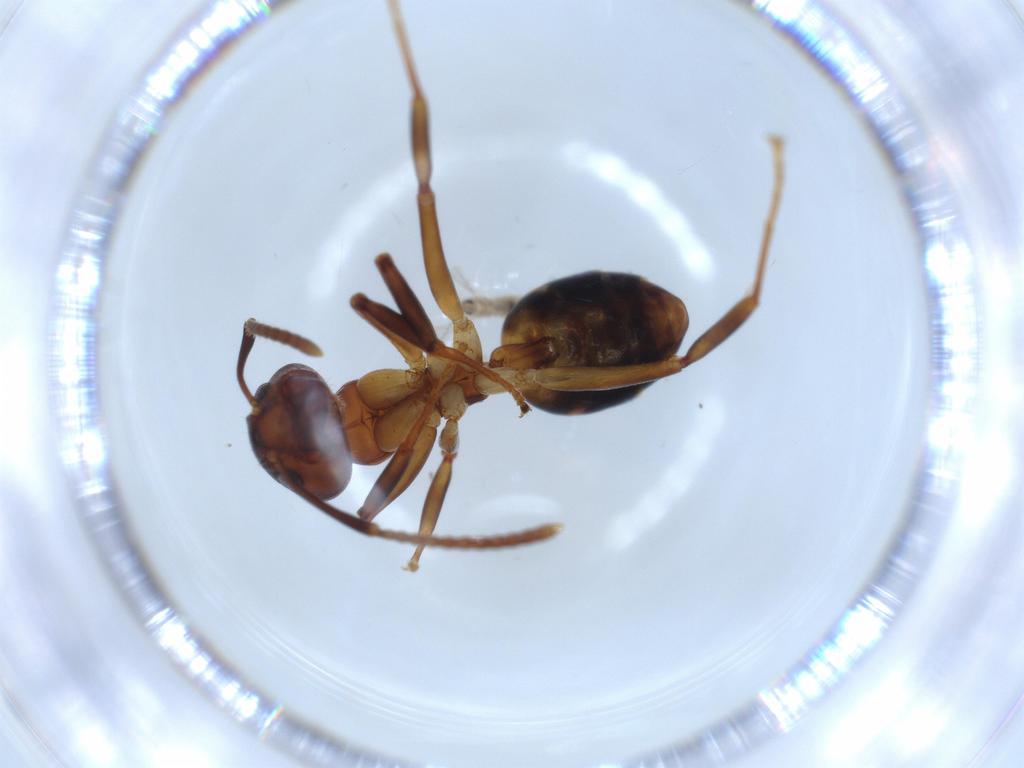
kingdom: Animalia
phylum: Arthropoda
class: Insecta
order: Hymenoptera
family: Formicidae
